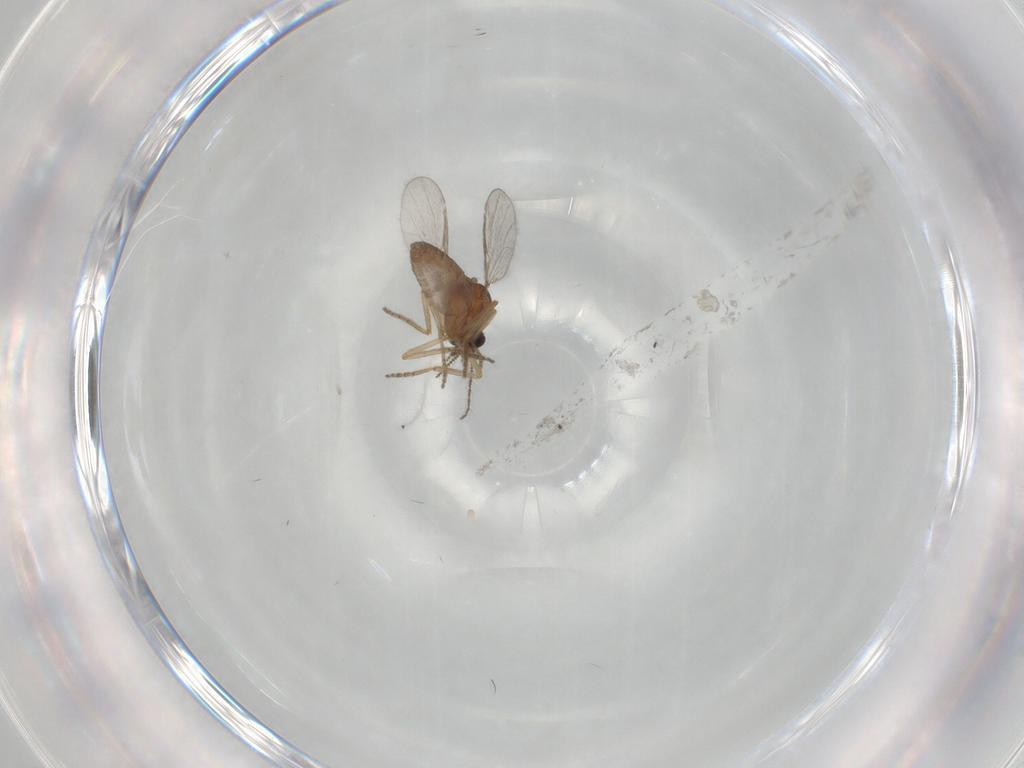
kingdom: Animalia
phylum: Arthropoda
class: Insecta
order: Diptera
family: Ceratopogonidae
